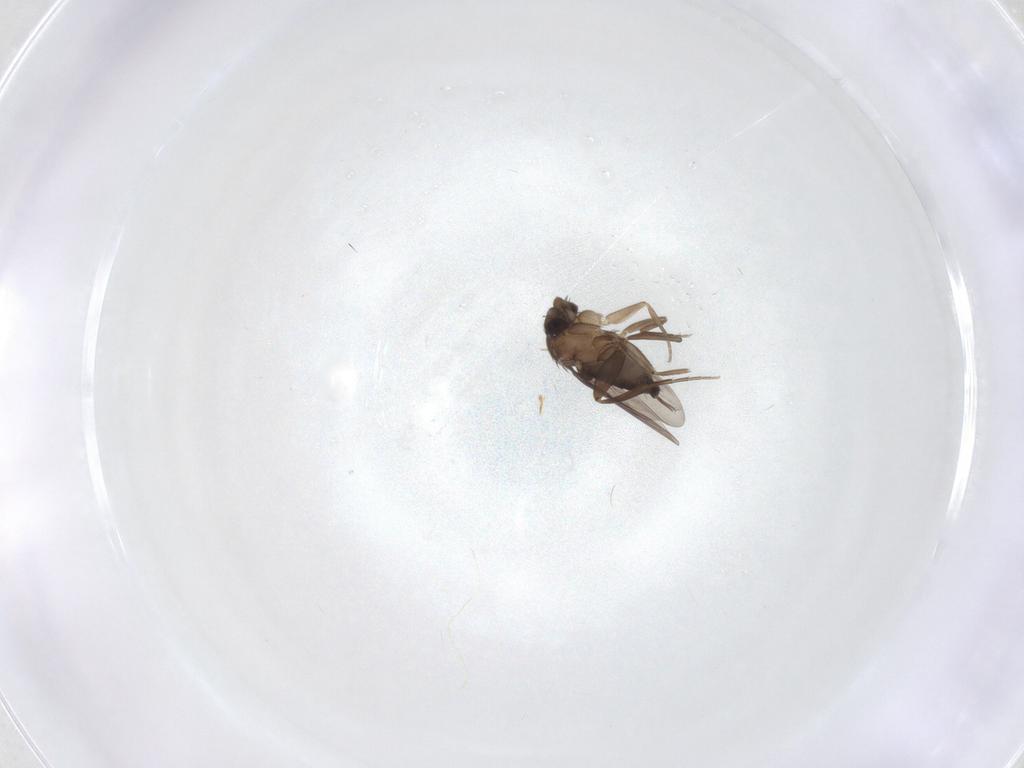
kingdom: Animalia
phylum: Arthropoda
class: Insecta
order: Diptera
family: Phoridae
